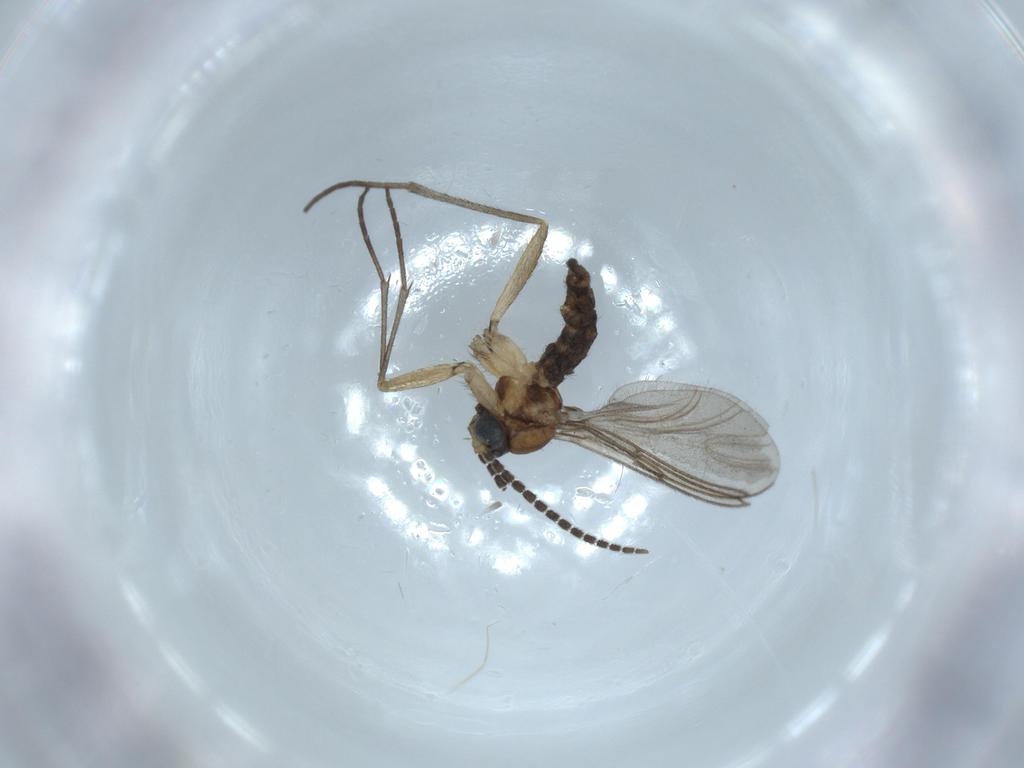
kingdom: Animalia
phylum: Arthropoda
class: Insecta
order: Diptera
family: Sciaridae
